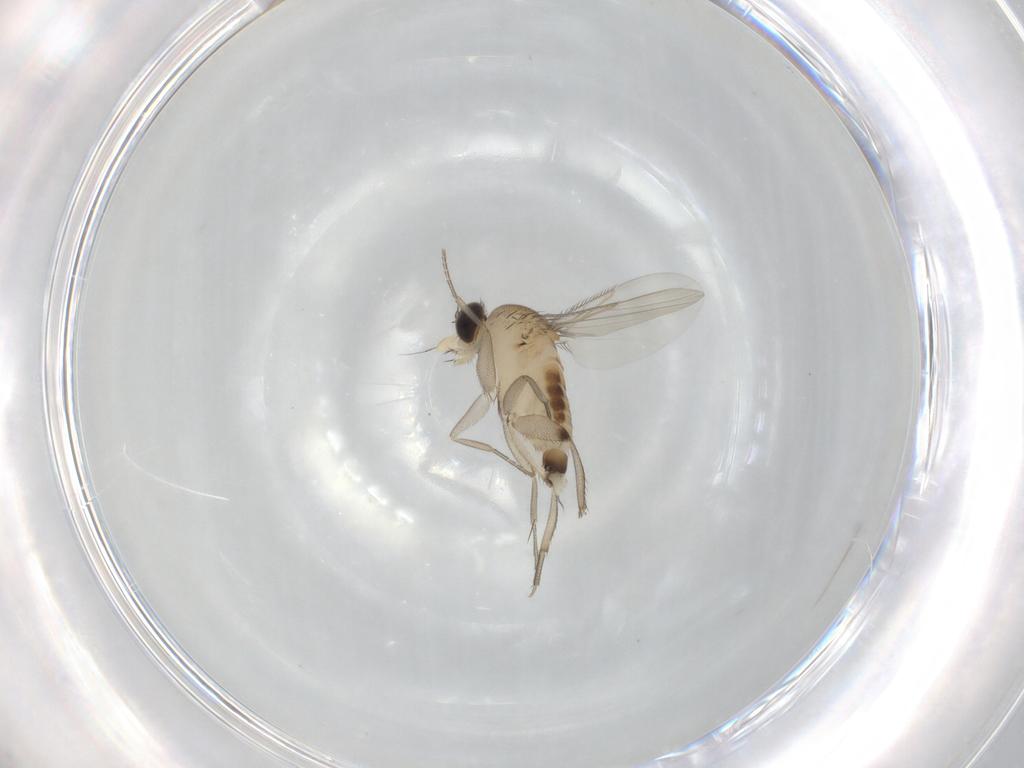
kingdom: Animalia
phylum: Arthropoda
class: Insecta
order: Diptera
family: Phoridae
